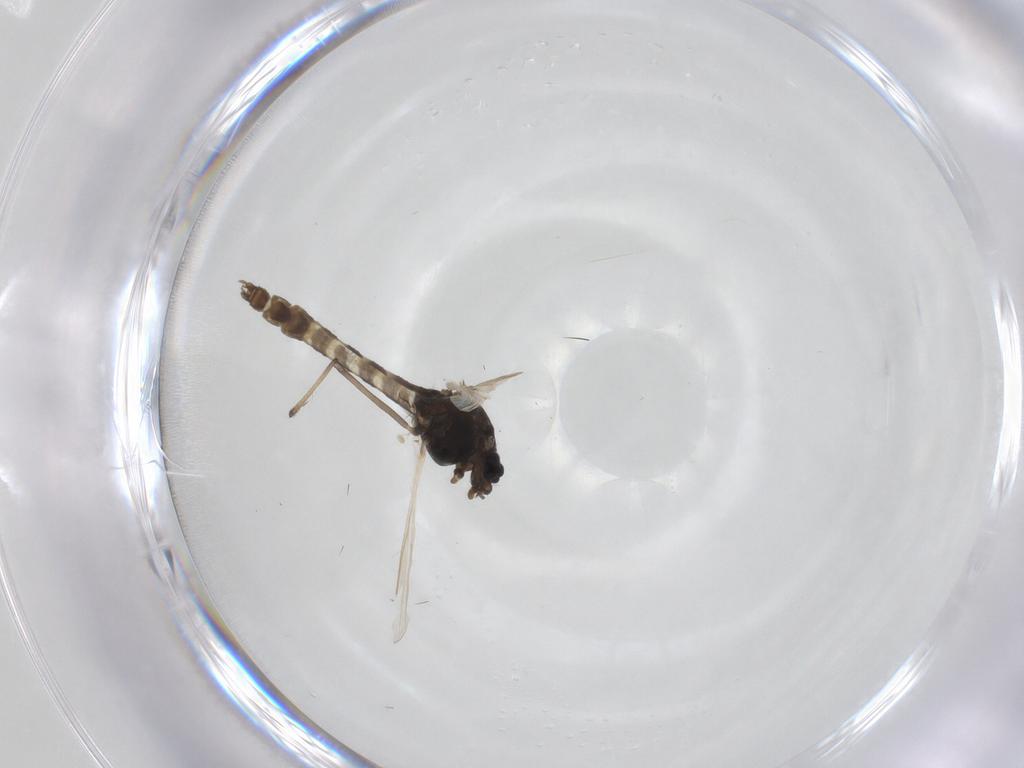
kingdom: Animalia
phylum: Arthropoda
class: Insecta
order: Diptera
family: Chironomidae
